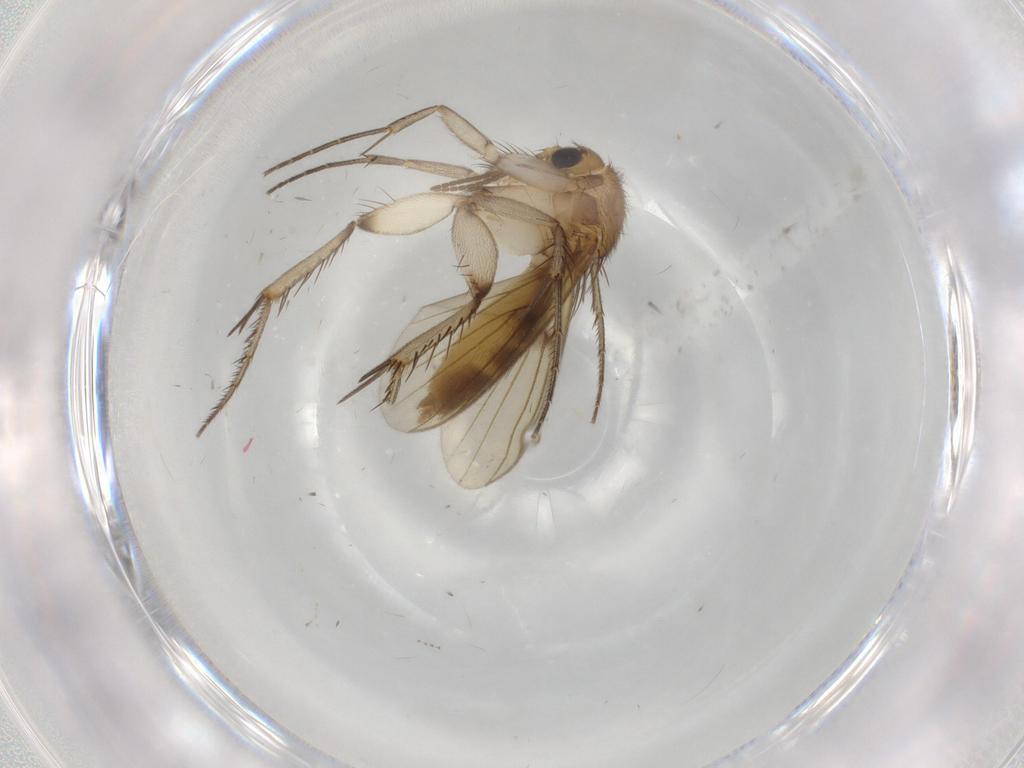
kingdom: Animalia
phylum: Arthropoda
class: Insecta
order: Diptera
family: Mycetophilidae
